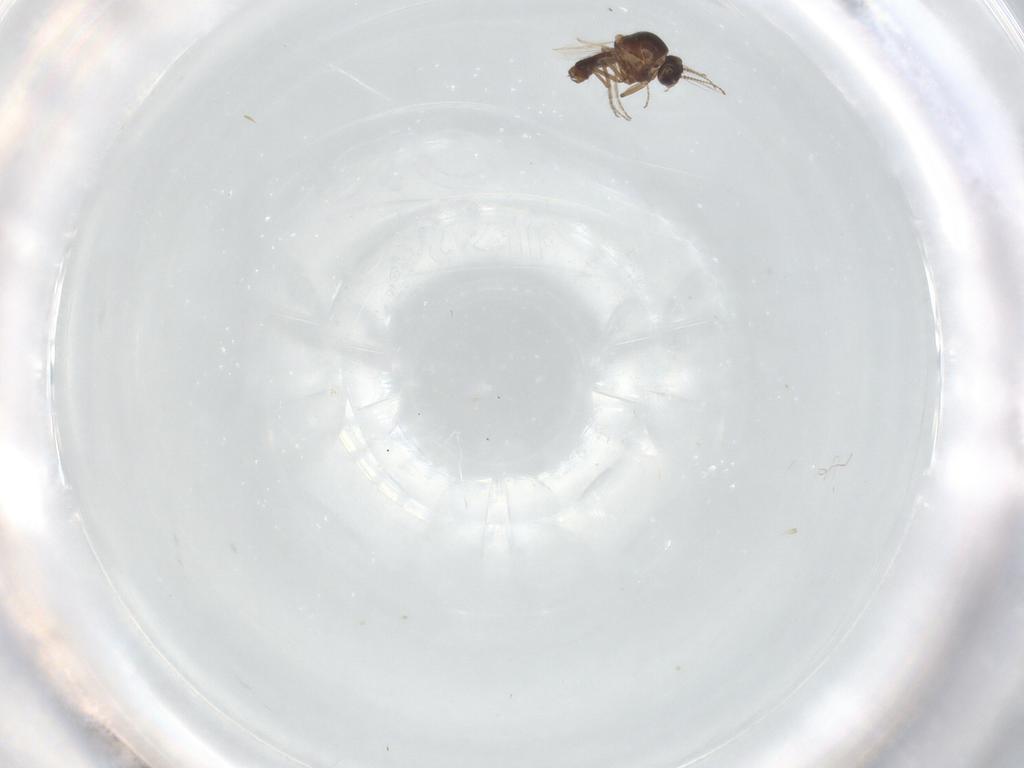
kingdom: Animalia
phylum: Arthropoda
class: Insecta
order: Diptera
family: Ceratopogonidae
